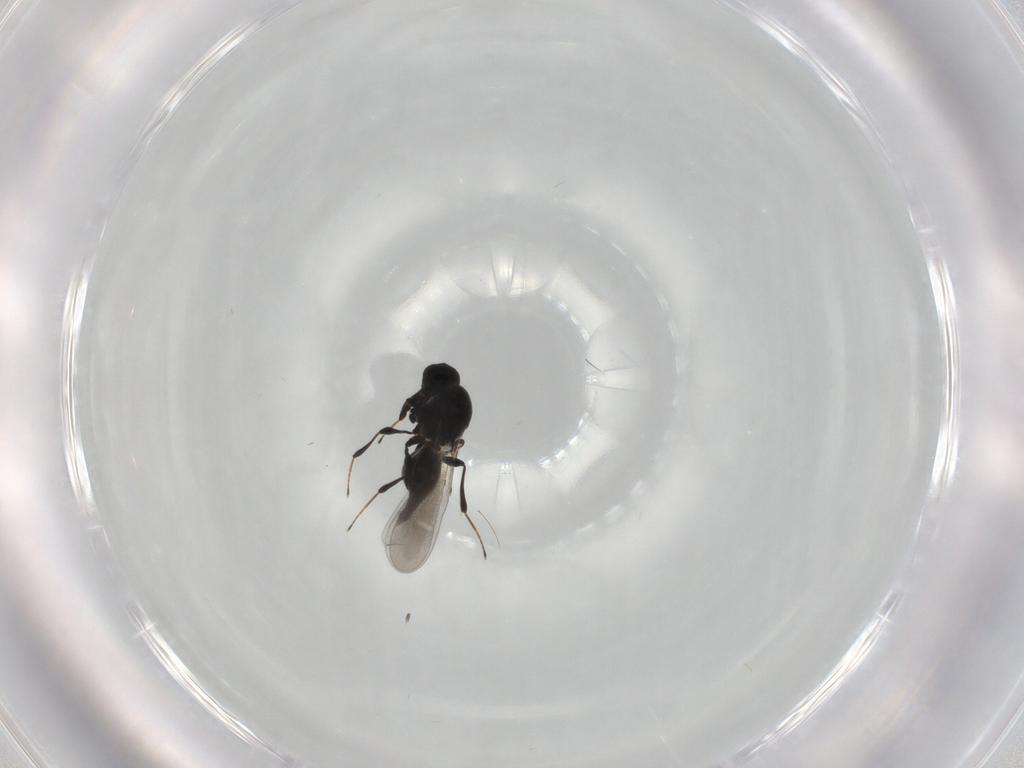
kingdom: Animalia
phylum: Arthropoda
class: Insecta
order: Hymenoptera
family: Platygastridae
